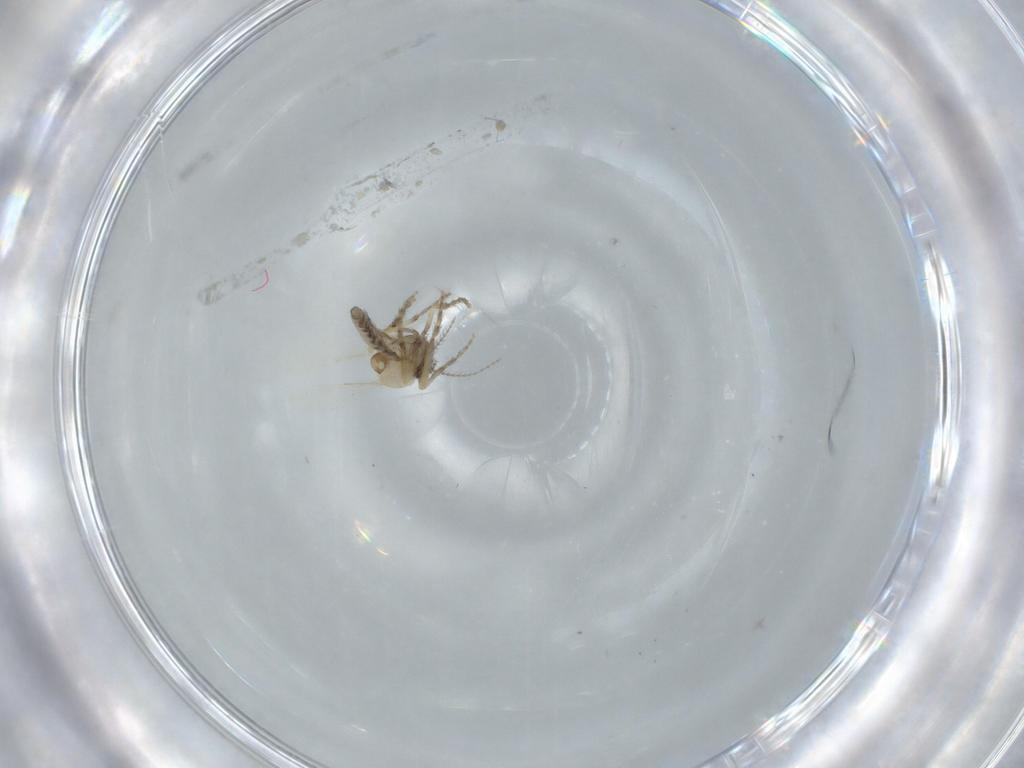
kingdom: Animalia
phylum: Arthropoda
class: Insecta
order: Diptera
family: Ceratopogonidae
